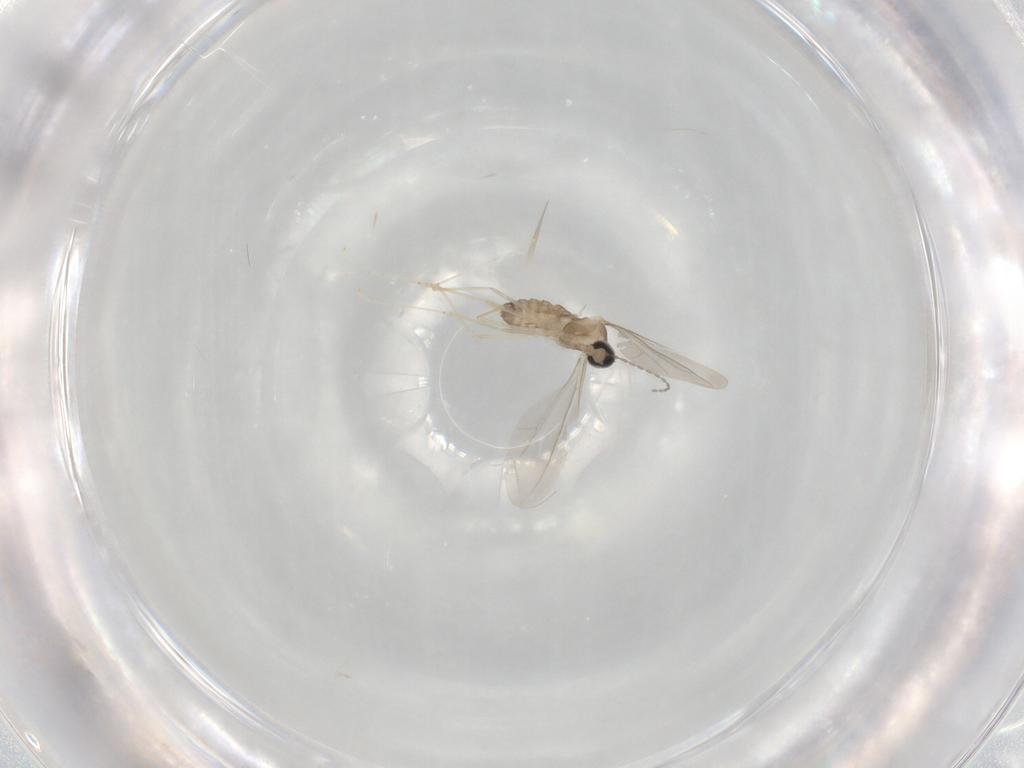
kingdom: Animalia
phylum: Arthropoda
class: Insecta
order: Diptera
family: Cecidomyiidae
